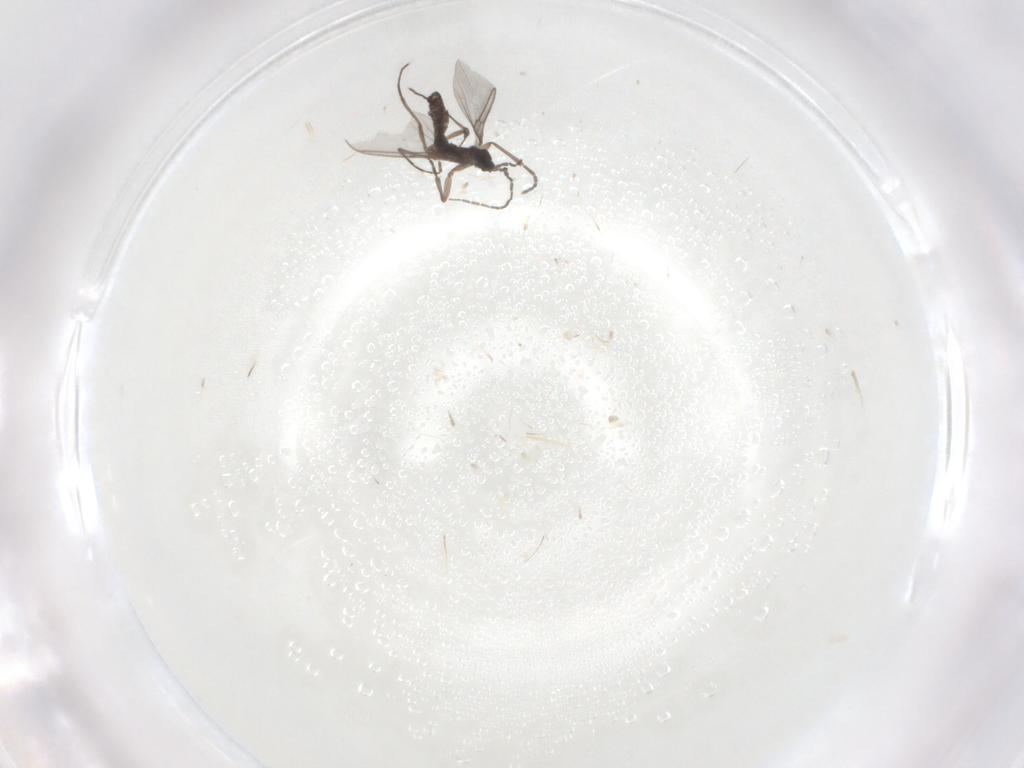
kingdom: Animalia
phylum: Arthropoda
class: Insecta
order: Diptera
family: Sciaridae
